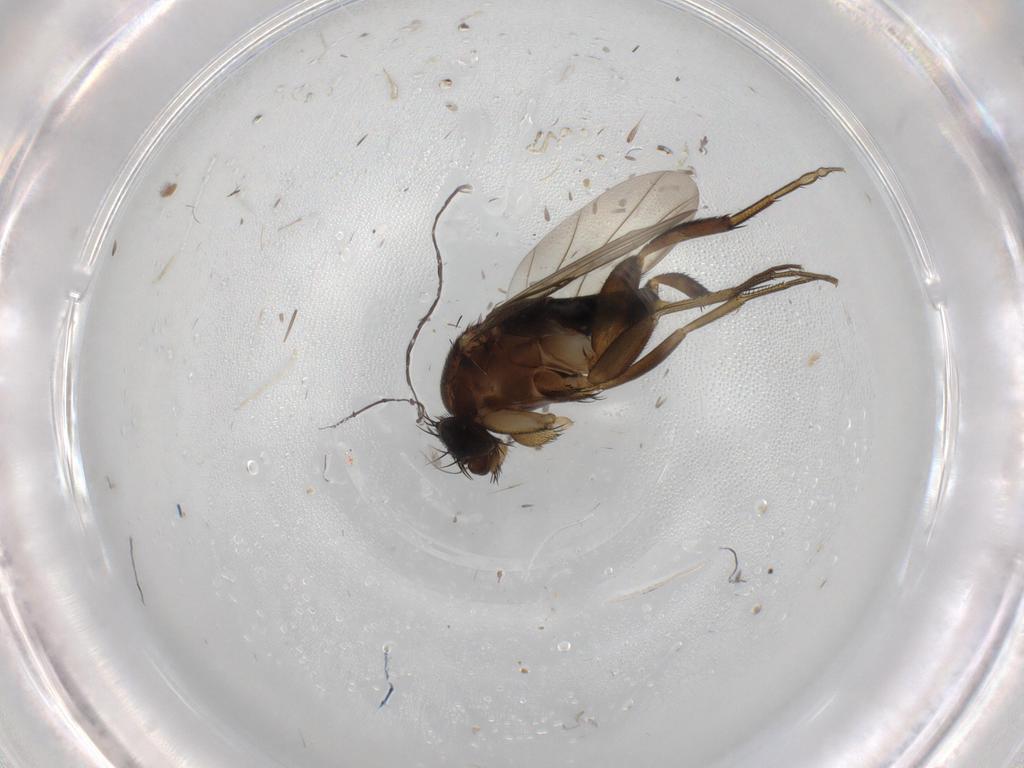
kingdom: Animalia
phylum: Arthropoda
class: Insecta
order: Diptera
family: Phoridae
